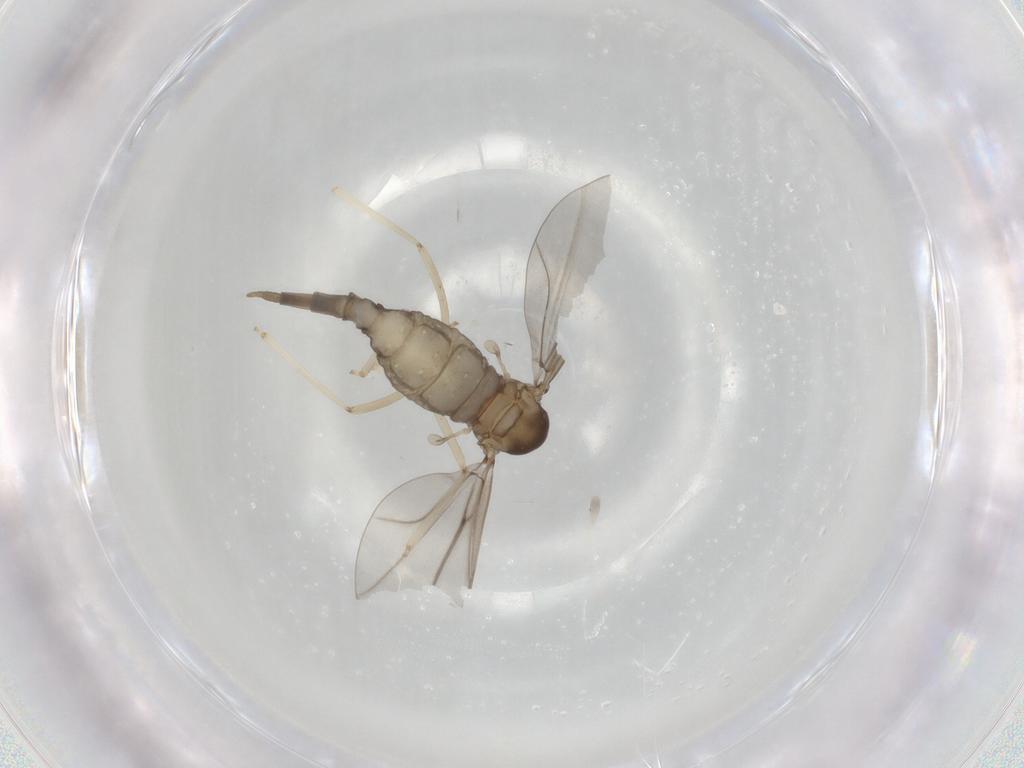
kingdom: Animalia
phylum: Arthropoda
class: Insecta
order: Diptera
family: Cecidomyiidae
